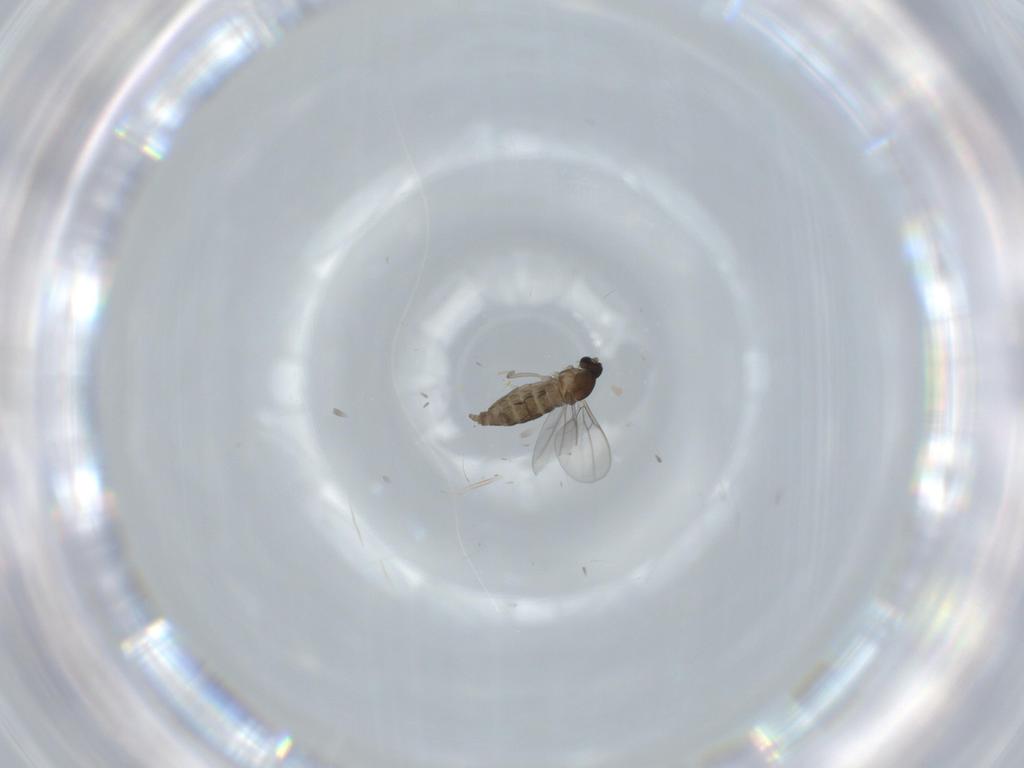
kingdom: Animalia
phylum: Arthropoda
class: Insecta
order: Diptera
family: Cecidomyiidae
